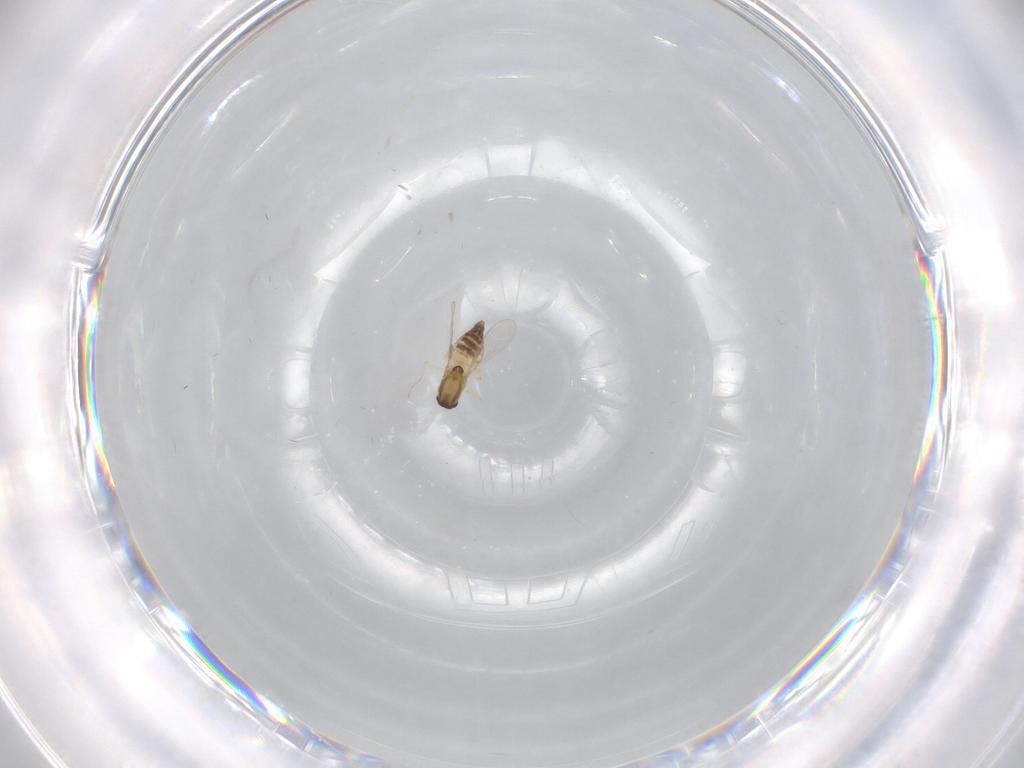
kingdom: Animalia
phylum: Arthropoda
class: Insecta
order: Diptera
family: Chironomidae
